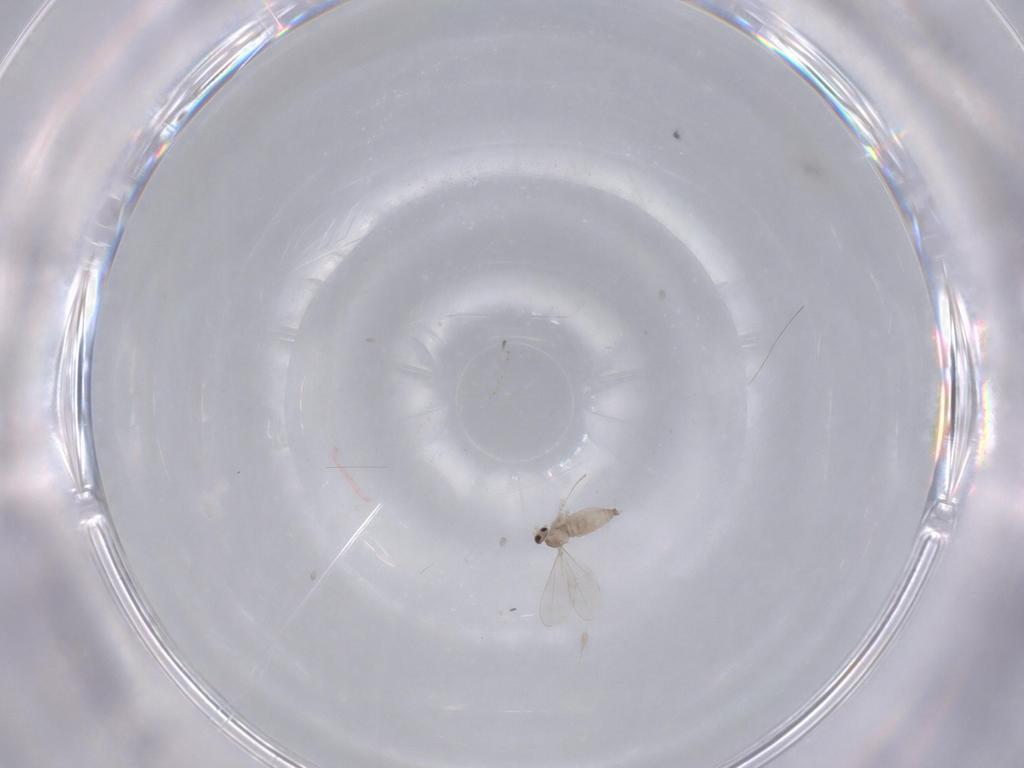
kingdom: Animalia
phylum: Arthropoda
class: Insecta
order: Diptera
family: Cecidomyiidae
